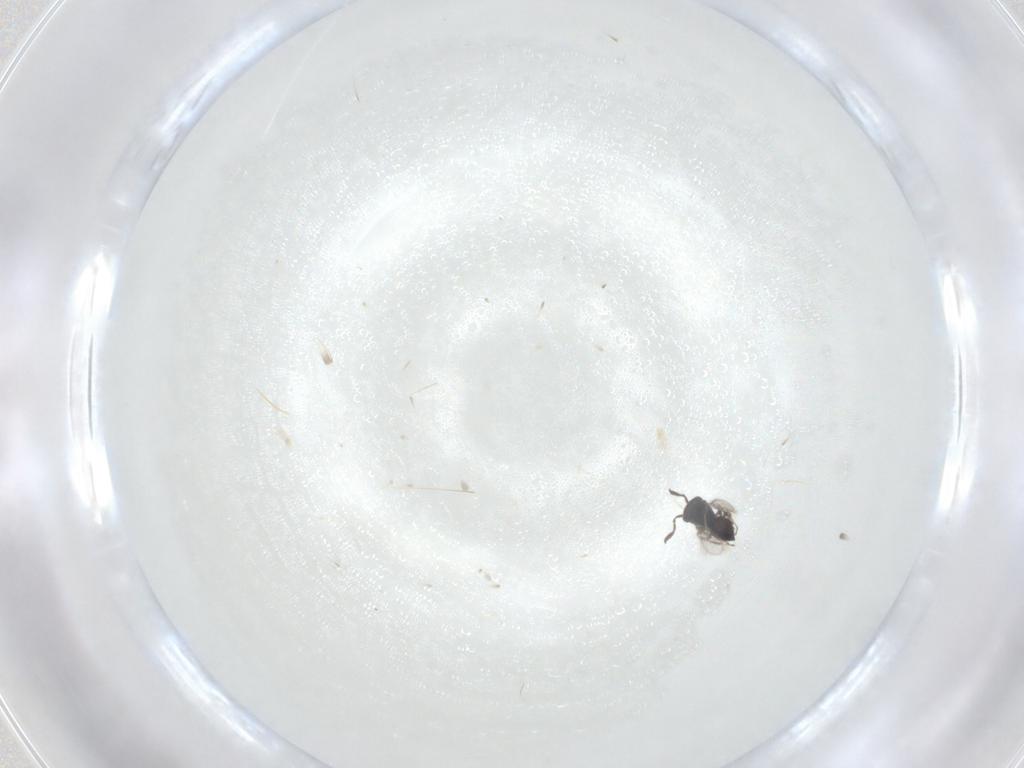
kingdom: Animalia
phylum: Arthropoda
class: Insecta
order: Hymenoptera
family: Scelionidae
